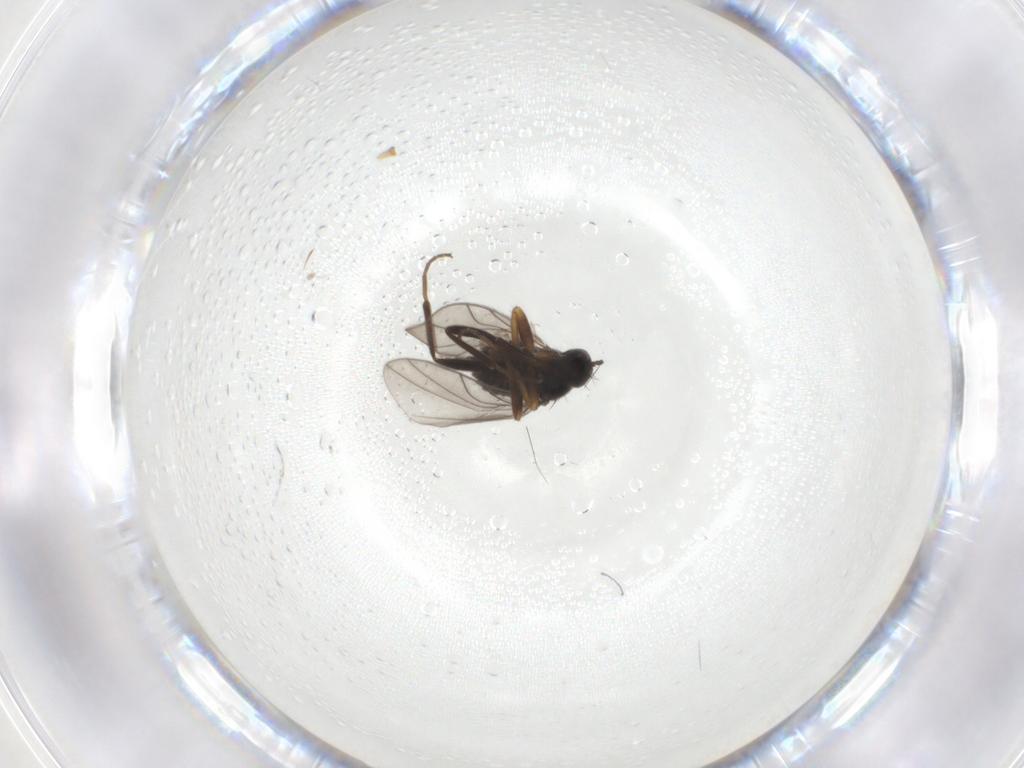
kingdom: Animalia
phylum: Arthropoda
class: Insecta
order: Diptera
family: Hybotidae
